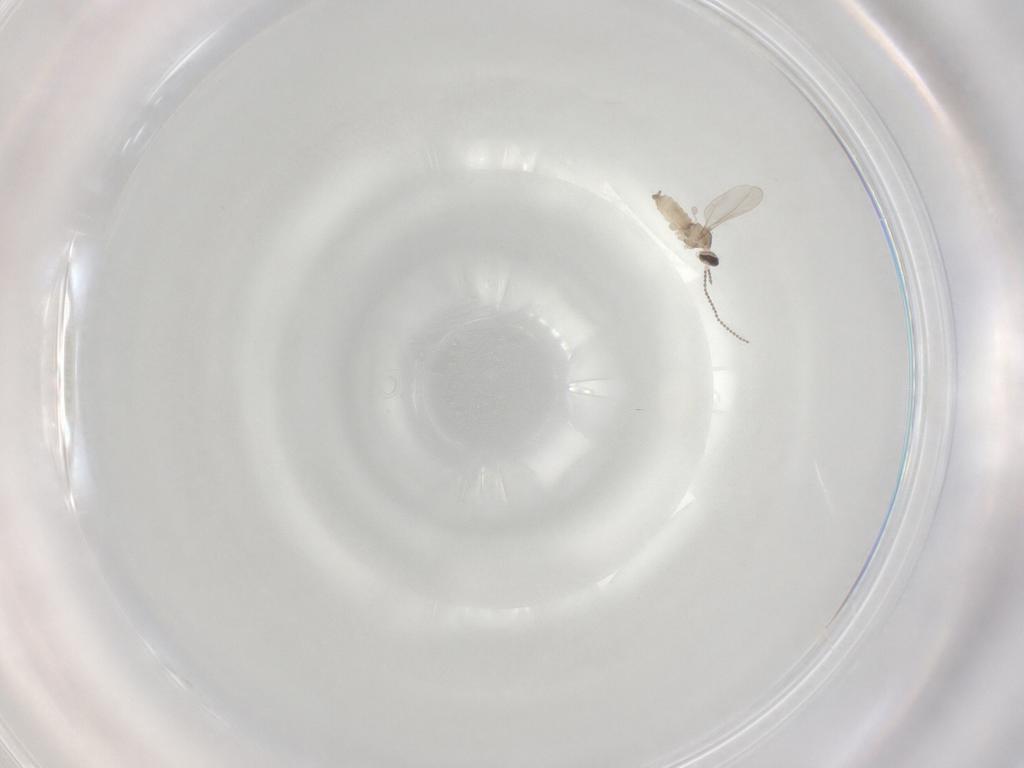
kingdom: Animalia
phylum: Arthropoda
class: Insecta
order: Diptera
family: Cecidomyiidae
